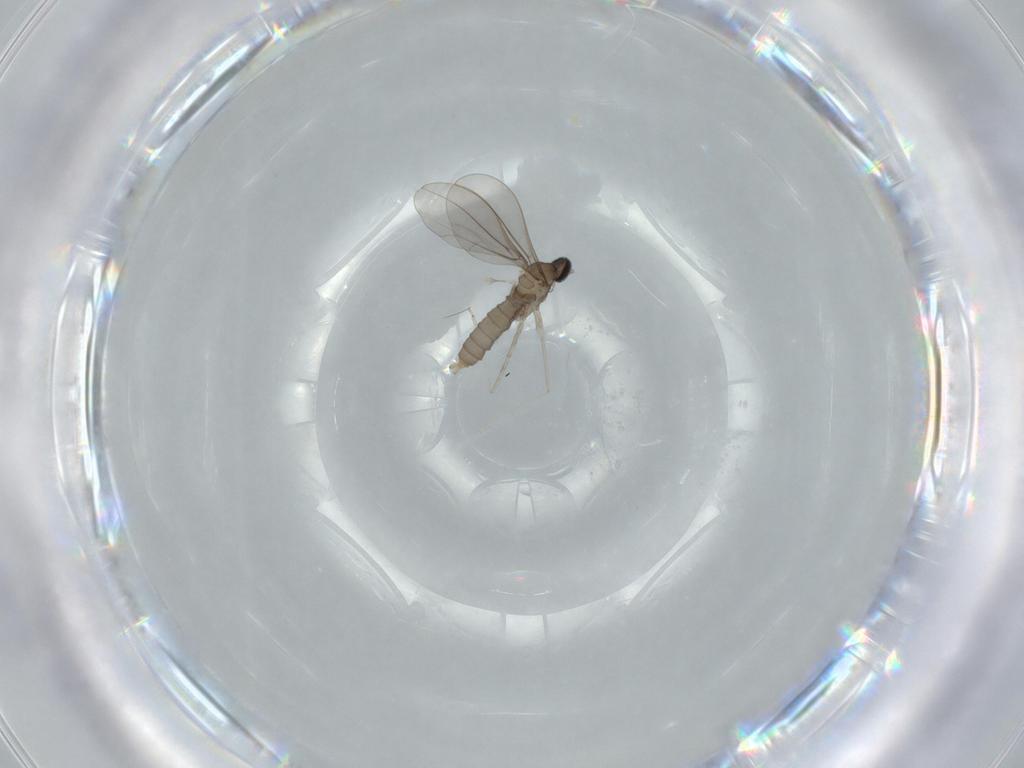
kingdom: Animalia
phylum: Arthropoda
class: Insecta
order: Diptera
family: Cecidomyiidae
